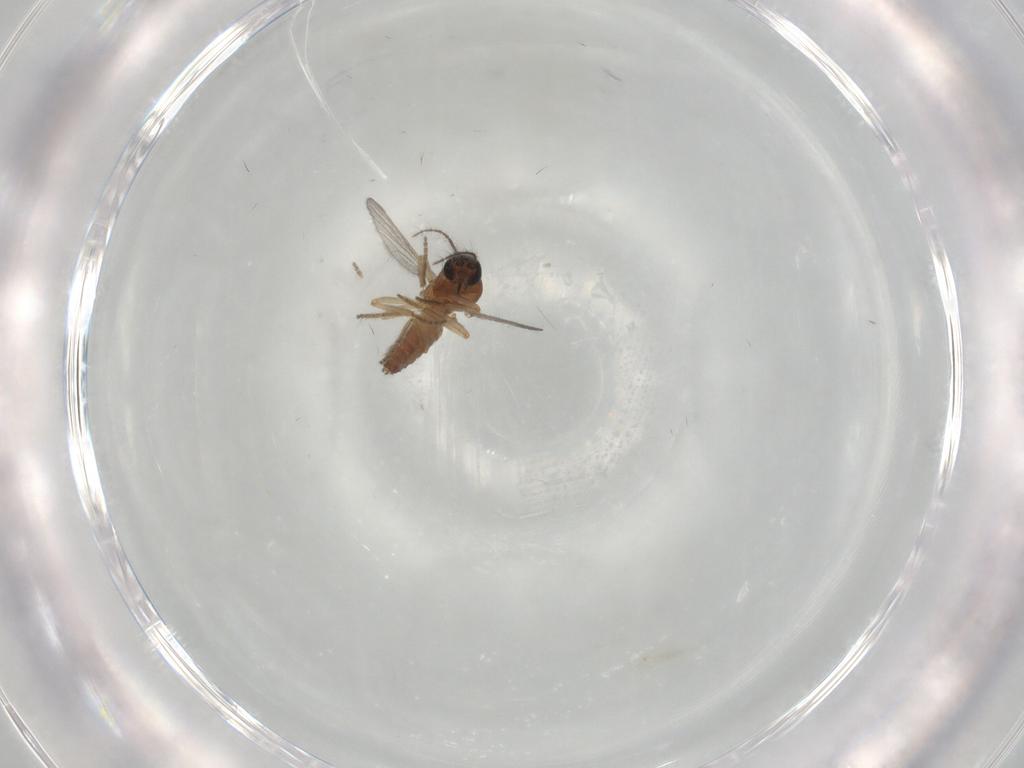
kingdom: Animalia
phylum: Arthropoda
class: Insecta
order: Diptera
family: Ceratopogonidae
